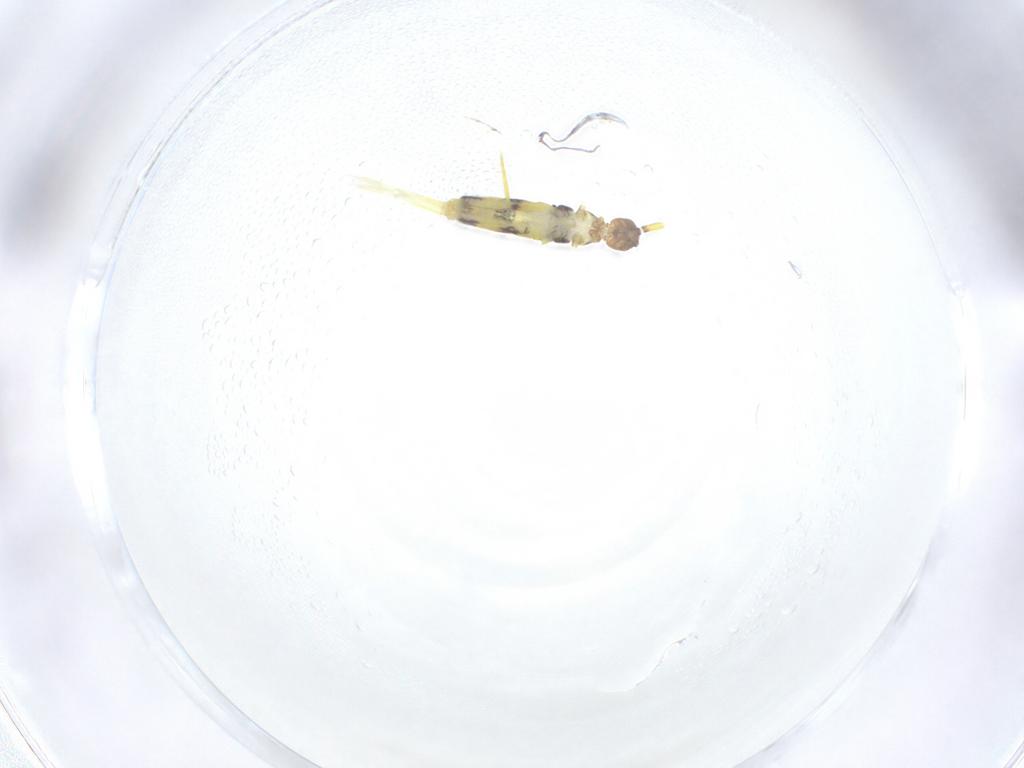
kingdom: Animalia
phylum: Arthropoda
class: Collembola
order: Entomobryomorpha
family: Entomobryidae
